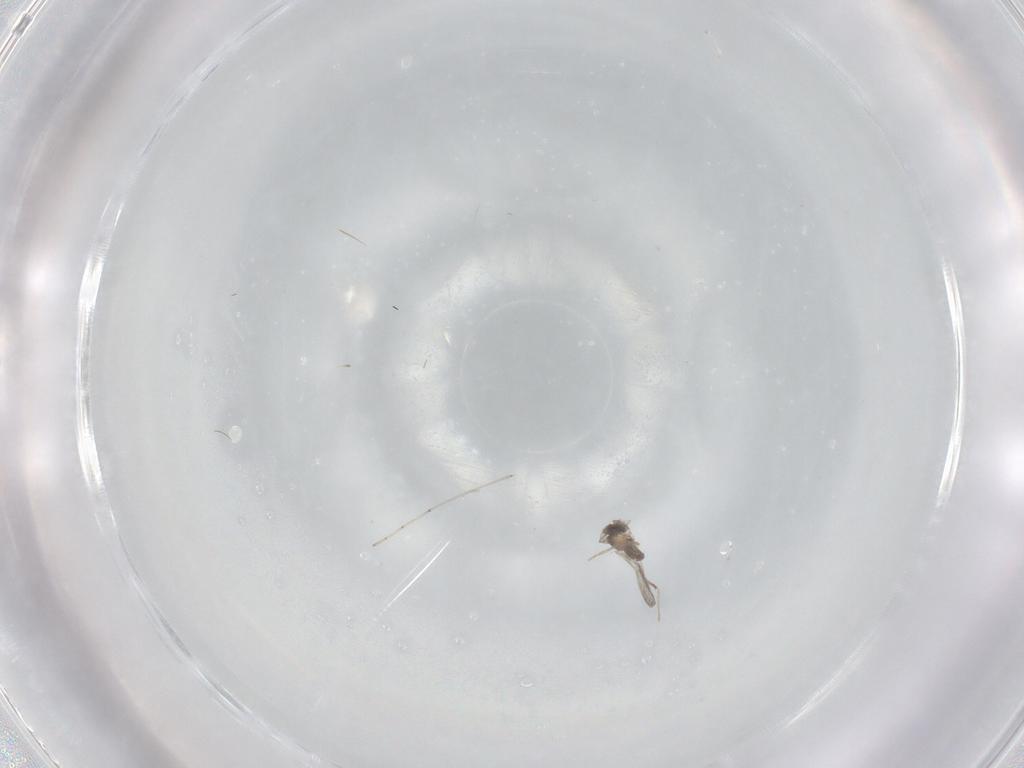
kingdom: Animalia
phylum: Arthropoda
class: Insecta
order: Diptera
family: Cecidomyiidae
